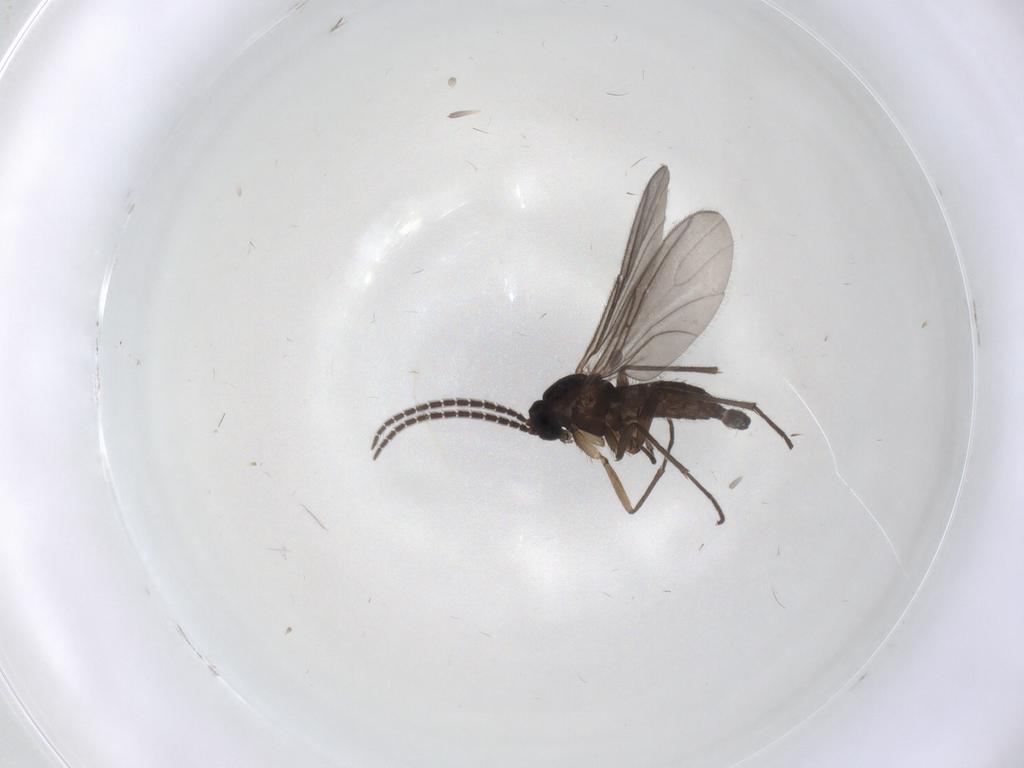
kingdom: Animalia
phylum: Arthropoda
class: Insecta
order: Diptera
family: Sciaridae
